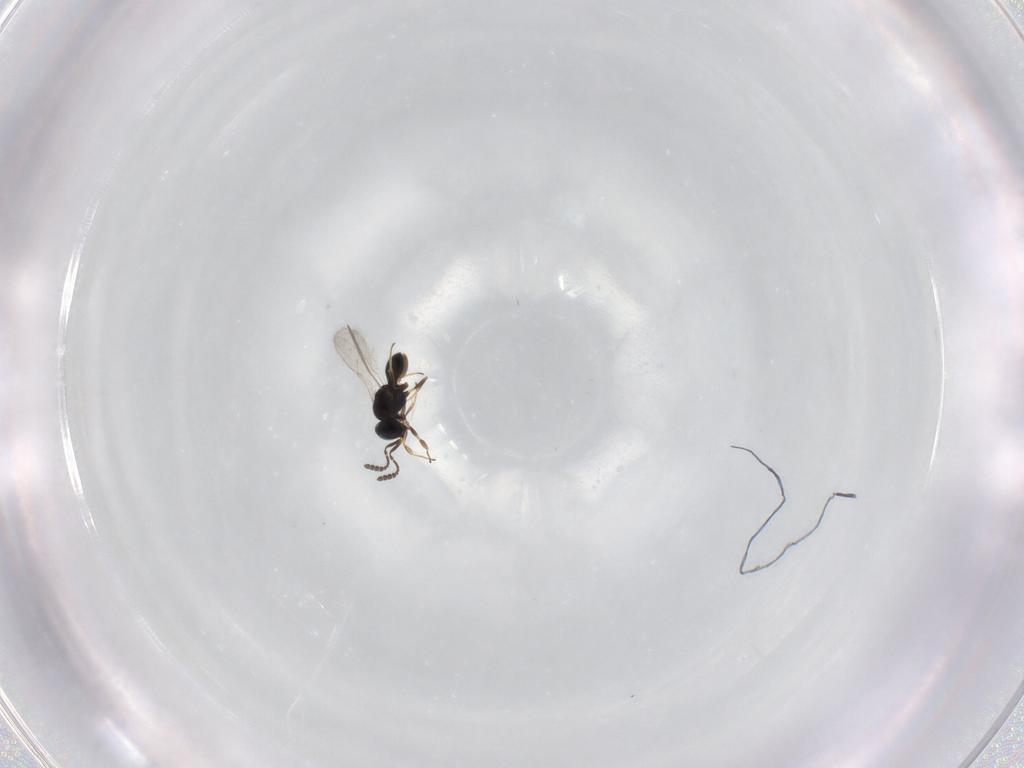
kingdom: Animalia
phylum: Arthropoda
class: Insecta
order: Hymenoptera
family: Scelionidae
